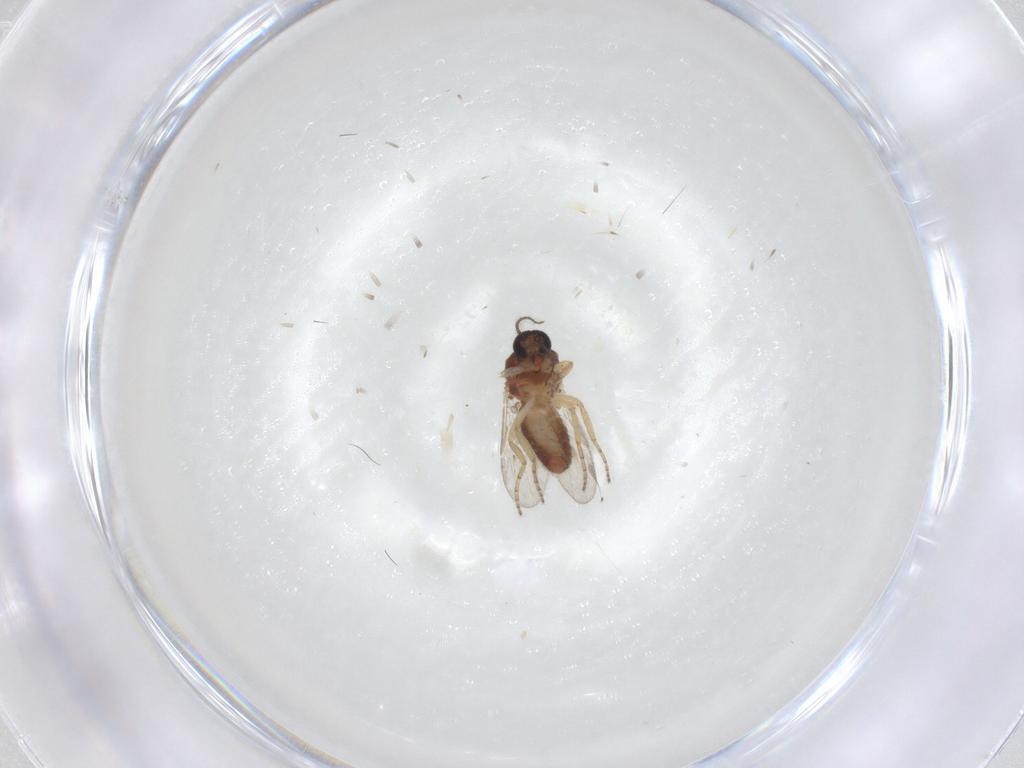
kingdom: Animalia
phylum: Arthropoda
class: Insecta
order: Diptera
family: Ceratopogonidae
